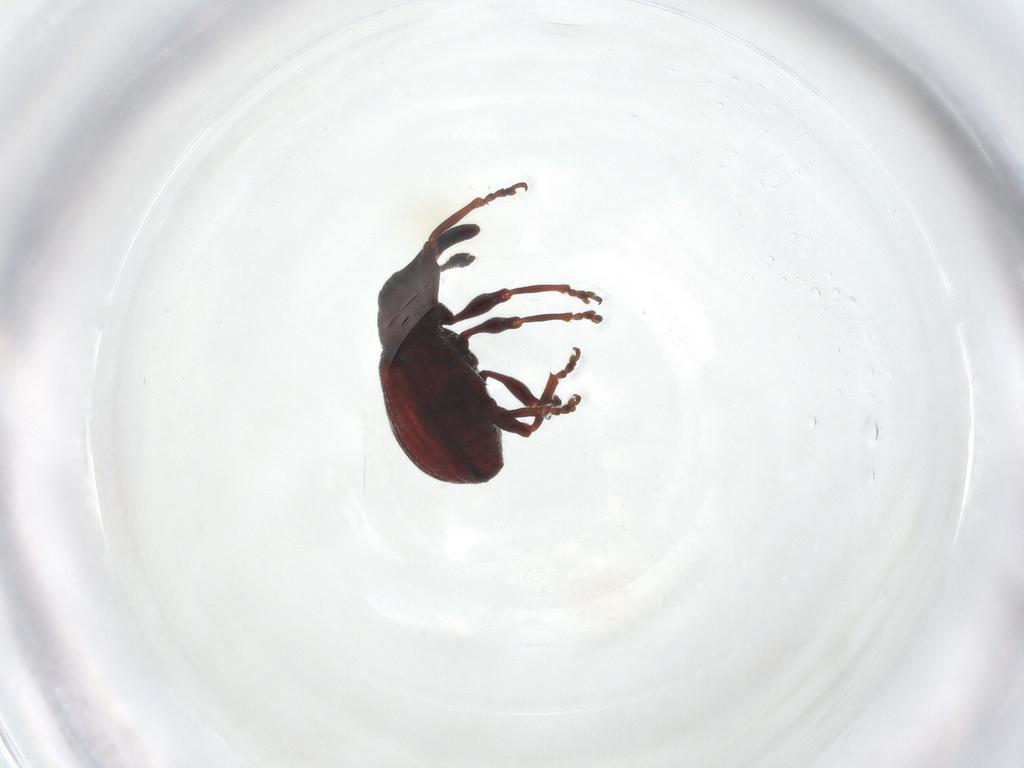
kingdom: Animalia
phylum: Arthropoda
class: Insecta
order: Coleoptera
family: Curculionidae
